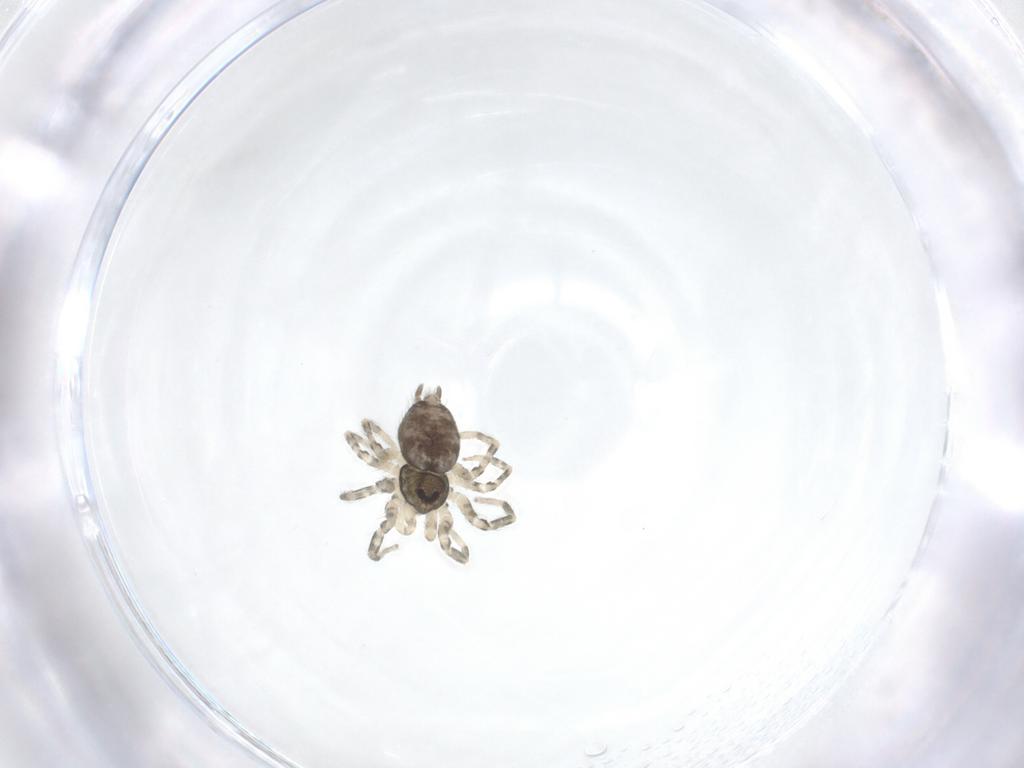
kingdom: Animalia
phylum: Arthropoda
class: Arachnida
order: Araneae
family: Oecobiidae
